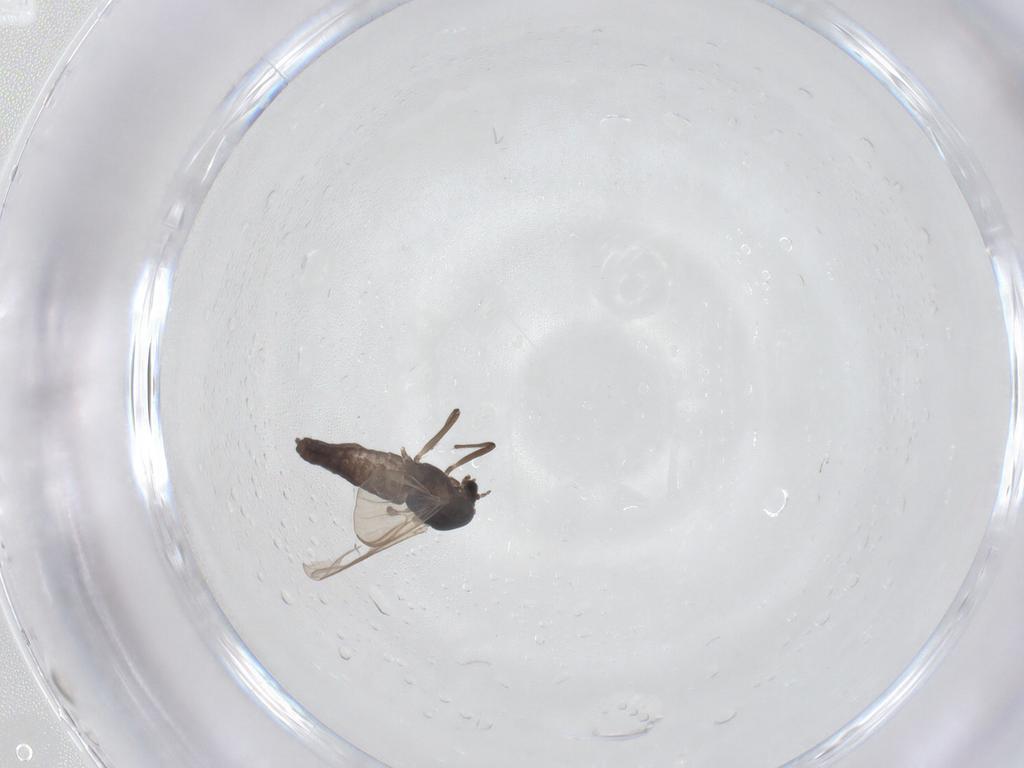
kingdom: Animalia
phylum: Arthropoda
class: Insecta
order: Diptera
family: Chironomidae
